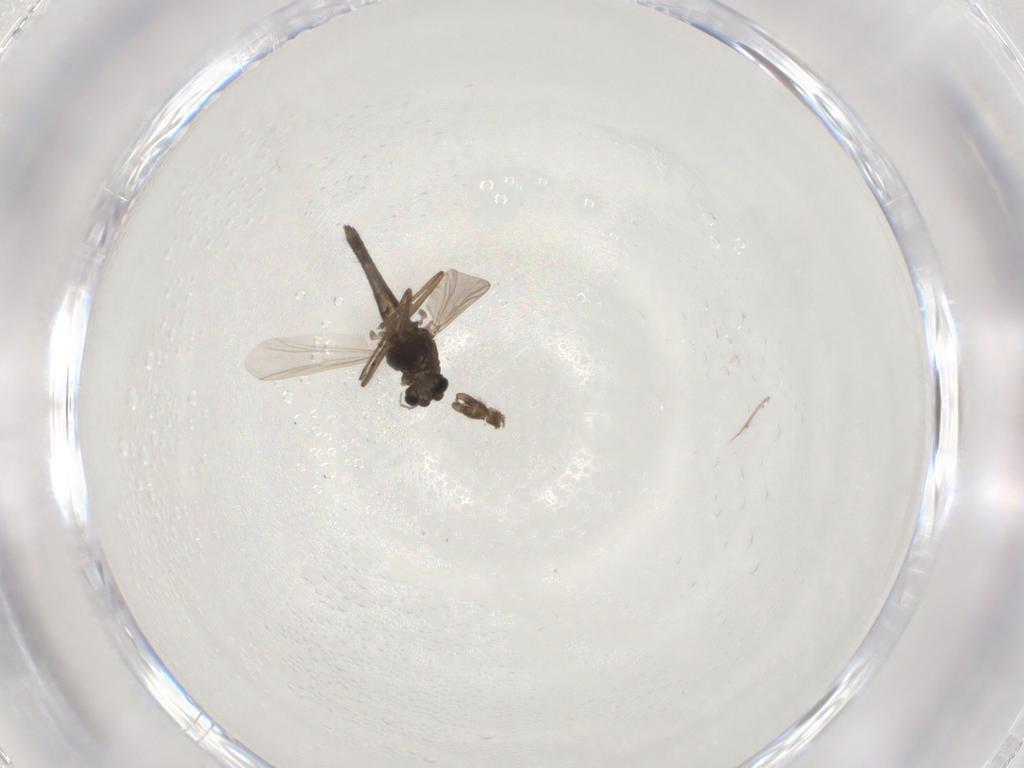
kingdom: Animalia
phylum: Arthropoda
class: Insecta
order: Diptera
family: Chironomidae
